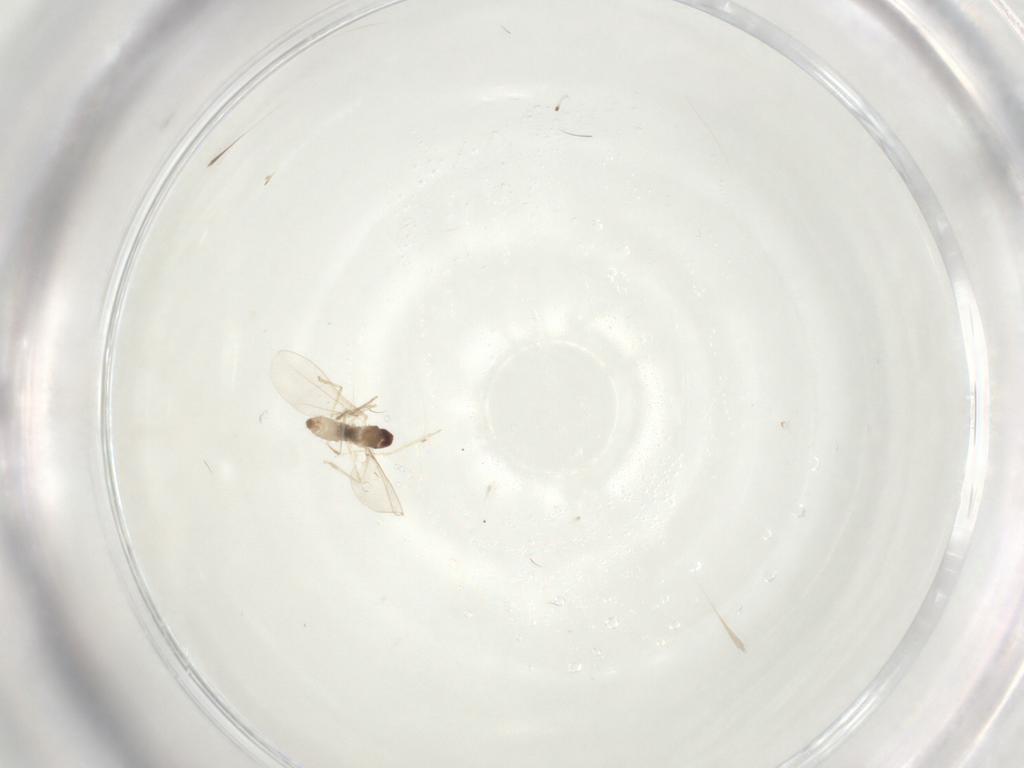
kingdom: Animalia
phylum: Arthropoda
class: Insecta
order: Diptera
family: Cecidomyiidae
